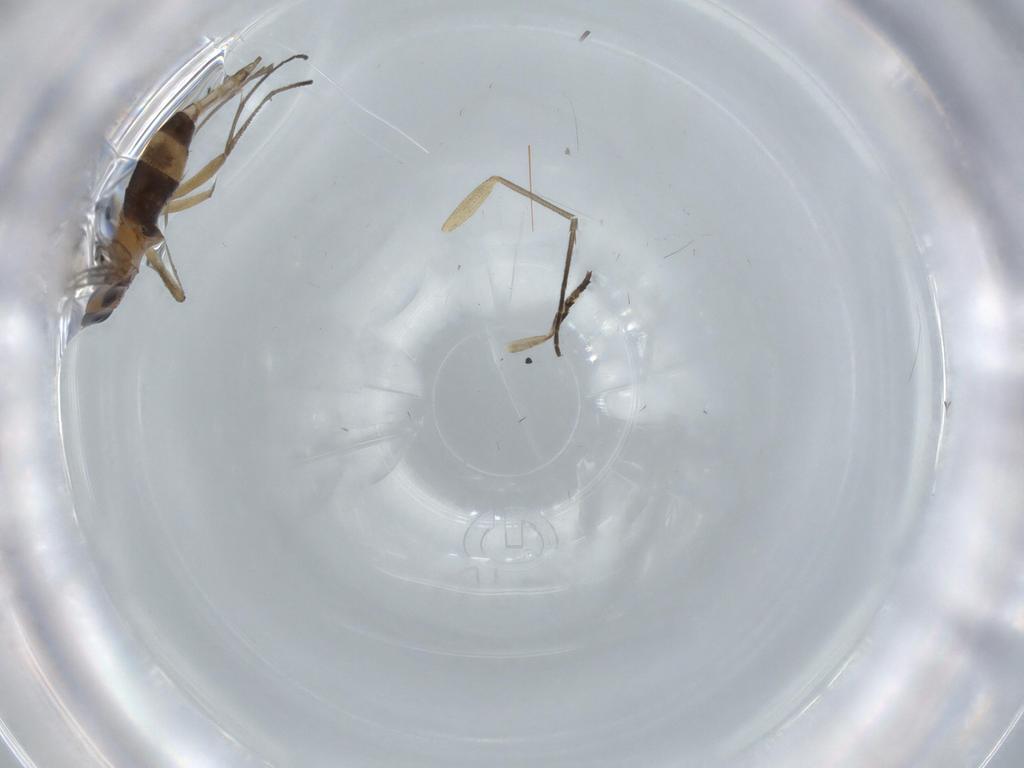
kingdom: Animalia
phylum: Arthropoda
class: Insecta
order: Diptera
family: Milichiidae
